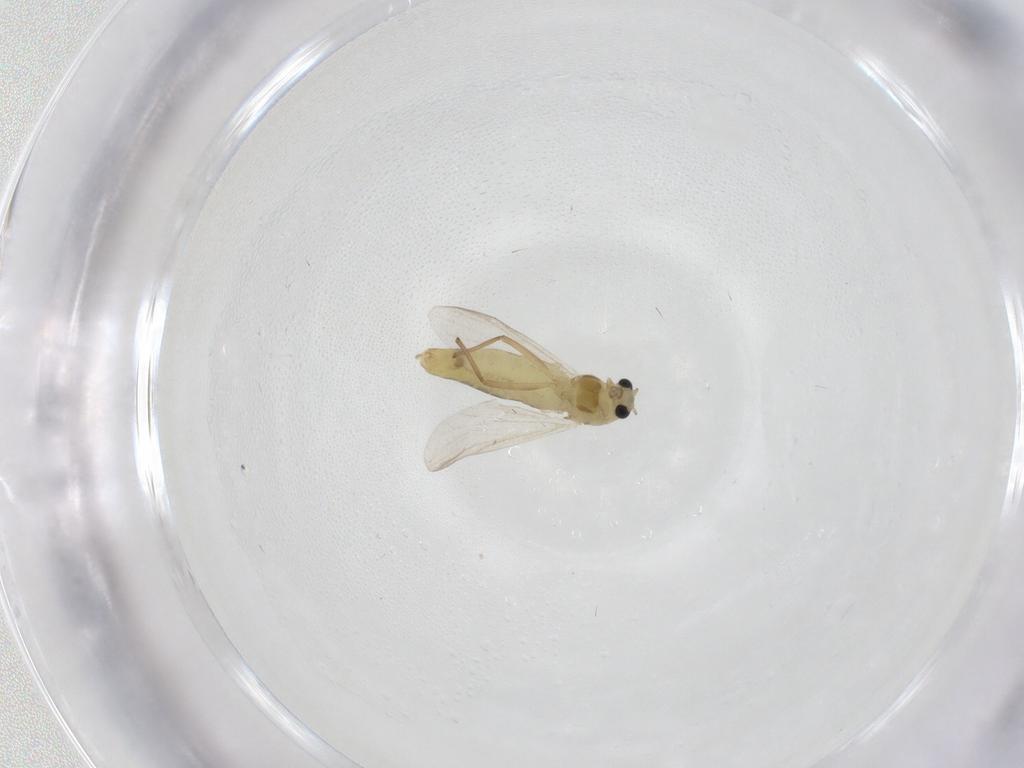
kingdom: Animalia
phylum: Arthropoda
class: Insecta
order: Diptera
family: Chironomidae
